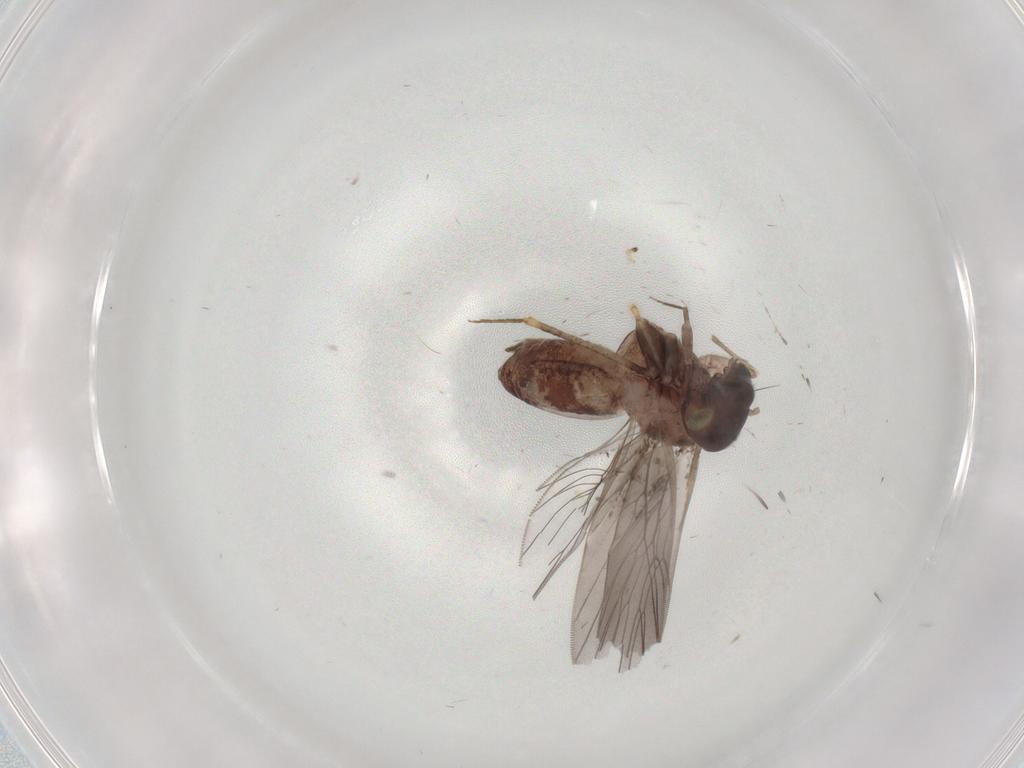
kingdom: Animalia
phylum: Arthropoda
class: Insecta
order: Hemiptera
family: Cicadellidae
